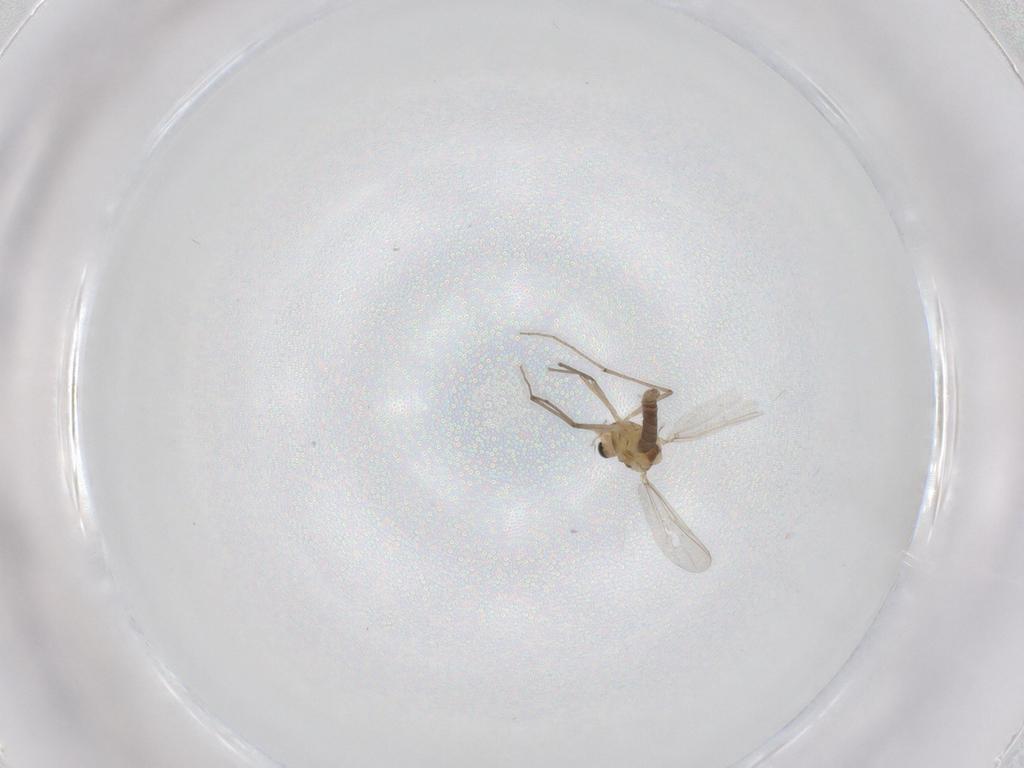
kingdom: Animalia
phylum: Arthropoda
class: Insecta
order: Diptera
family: Chironomidae
